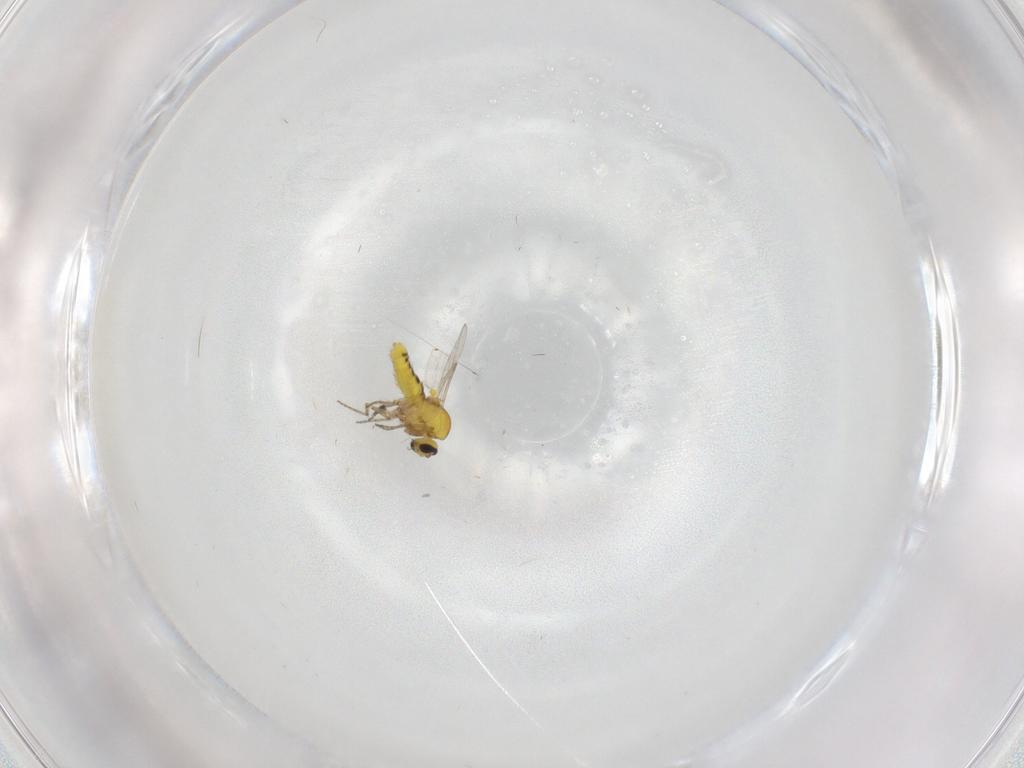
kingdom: Animalia
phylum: Arthropoda
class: Insecta
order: Diptera
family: Ceratopogonidae
